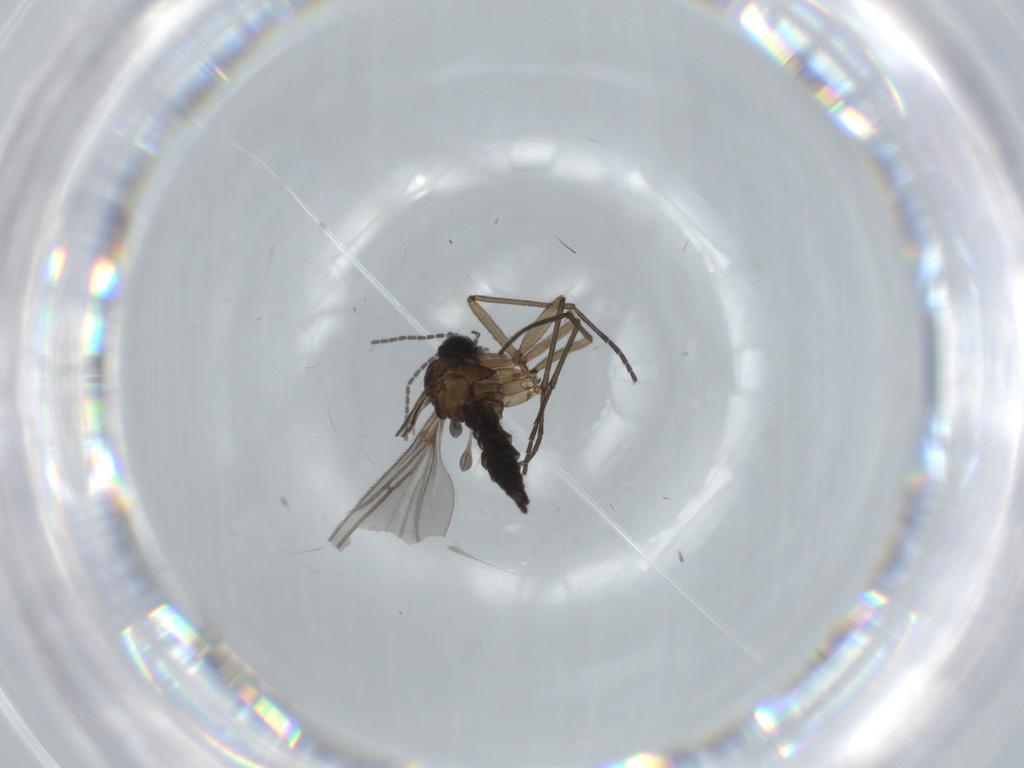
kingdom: Animalia
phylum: Arthropoda
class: Insecta
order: Diptera
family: Sciaridae
